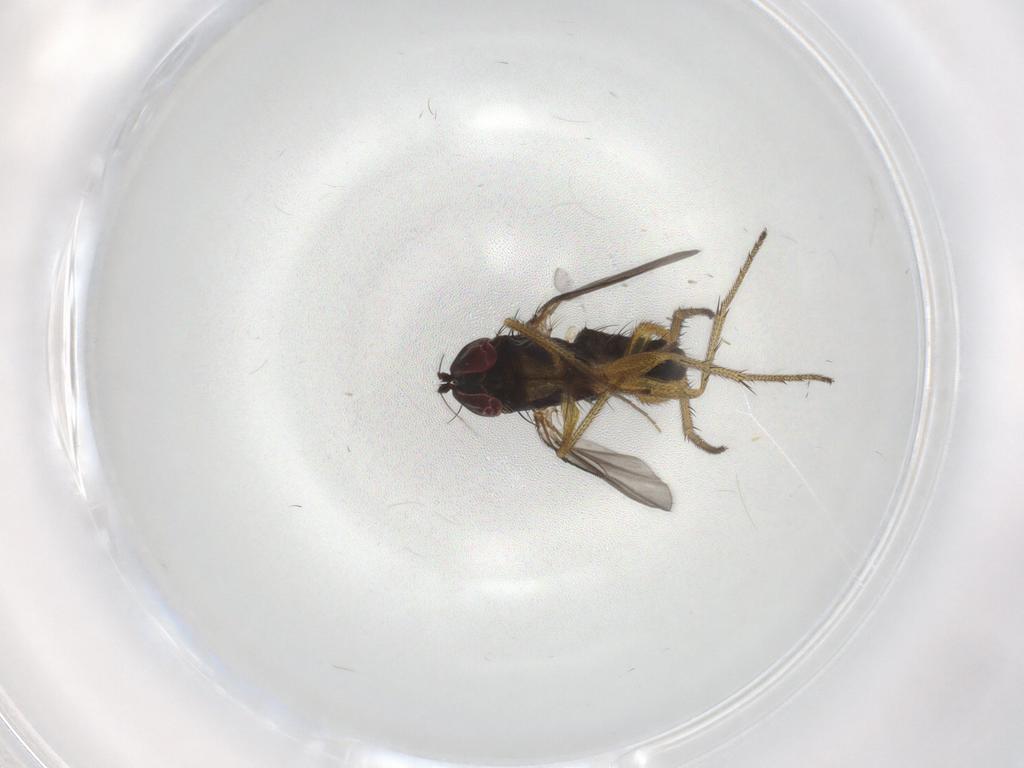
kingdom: Animalia
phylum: Arthropoda
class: Insecta
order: Diptera
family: Dolichopodidae
